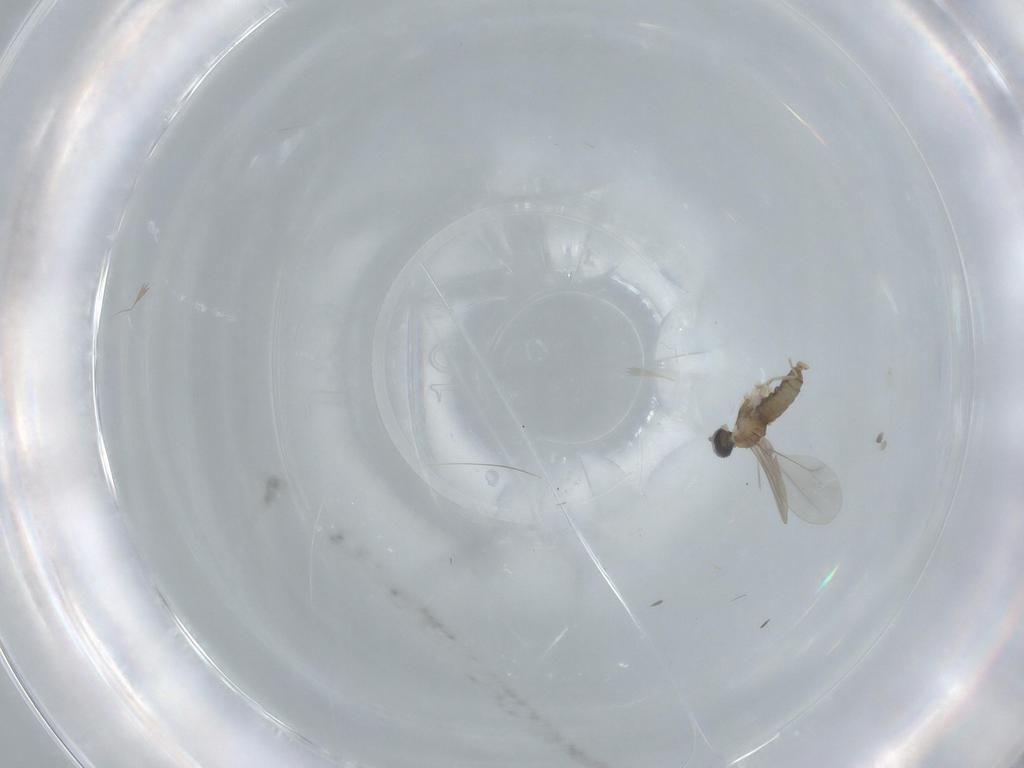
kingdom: Animalia
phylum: Arthropoda
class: Insecta
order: Diptera
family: Cecidomyiidae
